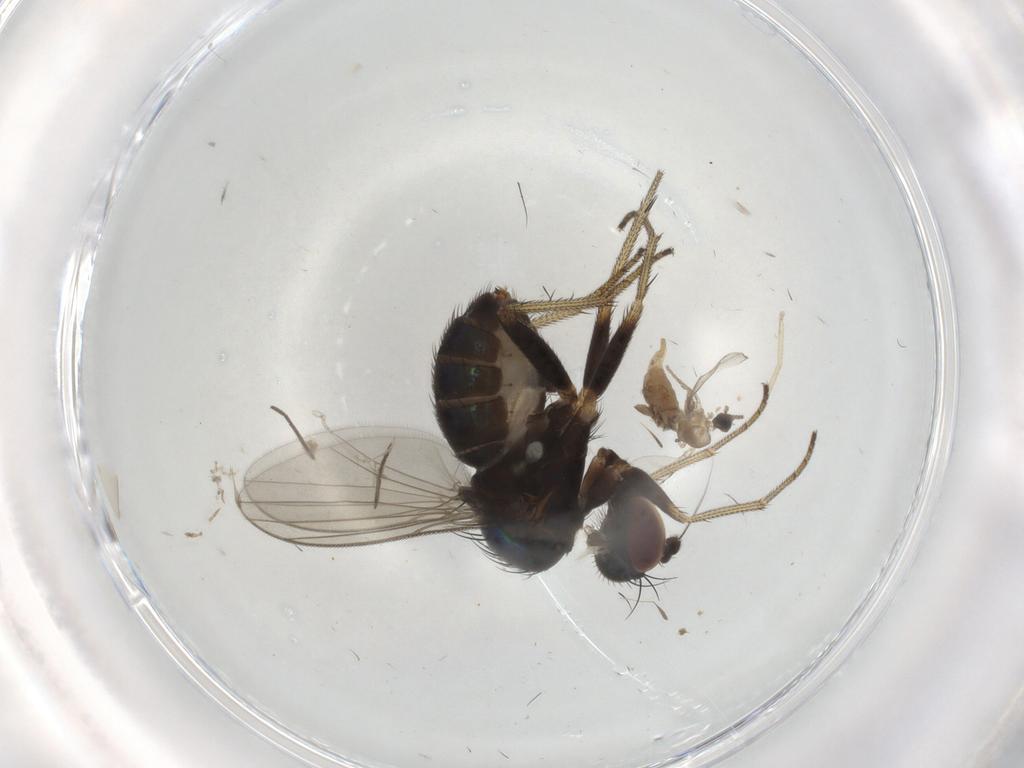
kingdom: Animalia
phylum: Arthropoda
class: Insecta
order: Diptera
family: Dolichopodidae
